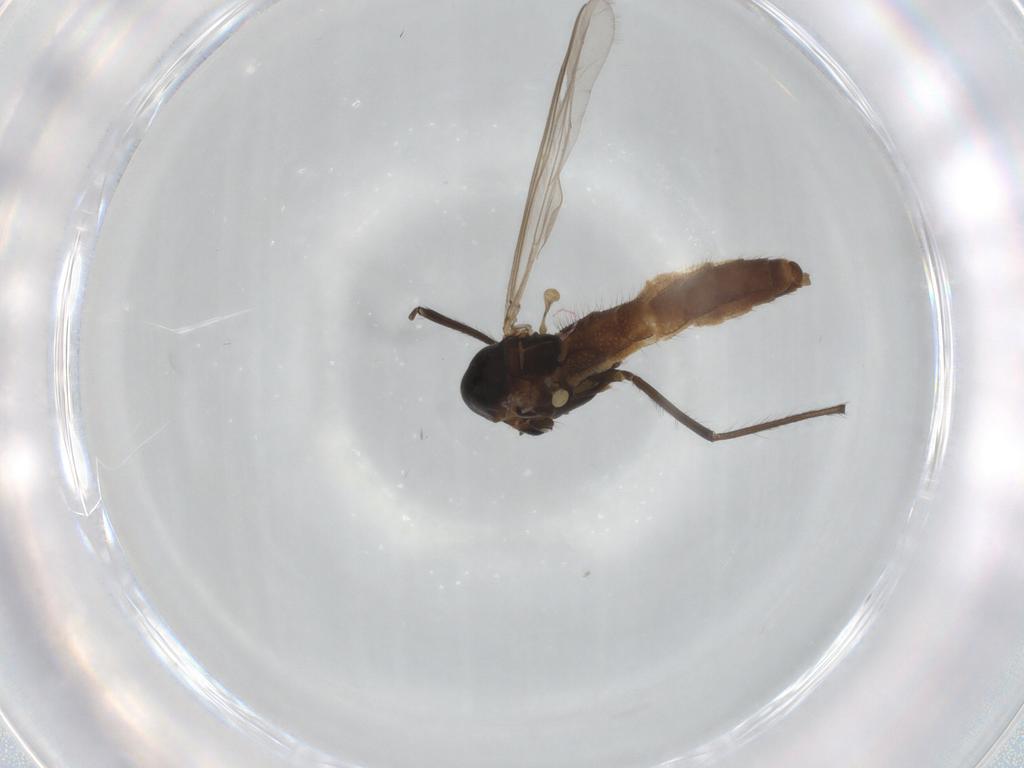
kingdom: Animalia
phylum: Arthropoda
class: Insecta
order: Diptera
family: Chironomidae
